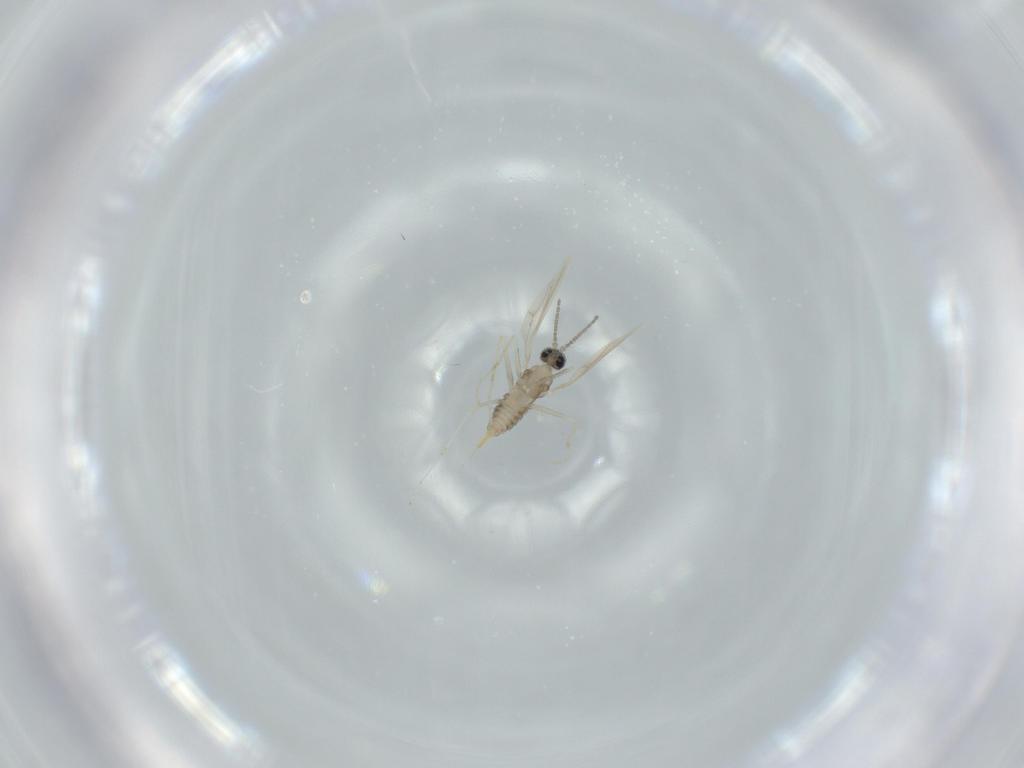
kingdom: Animalia
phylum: Arthropoda
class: Insecta
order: Diptera
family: Cecidomyiidae
